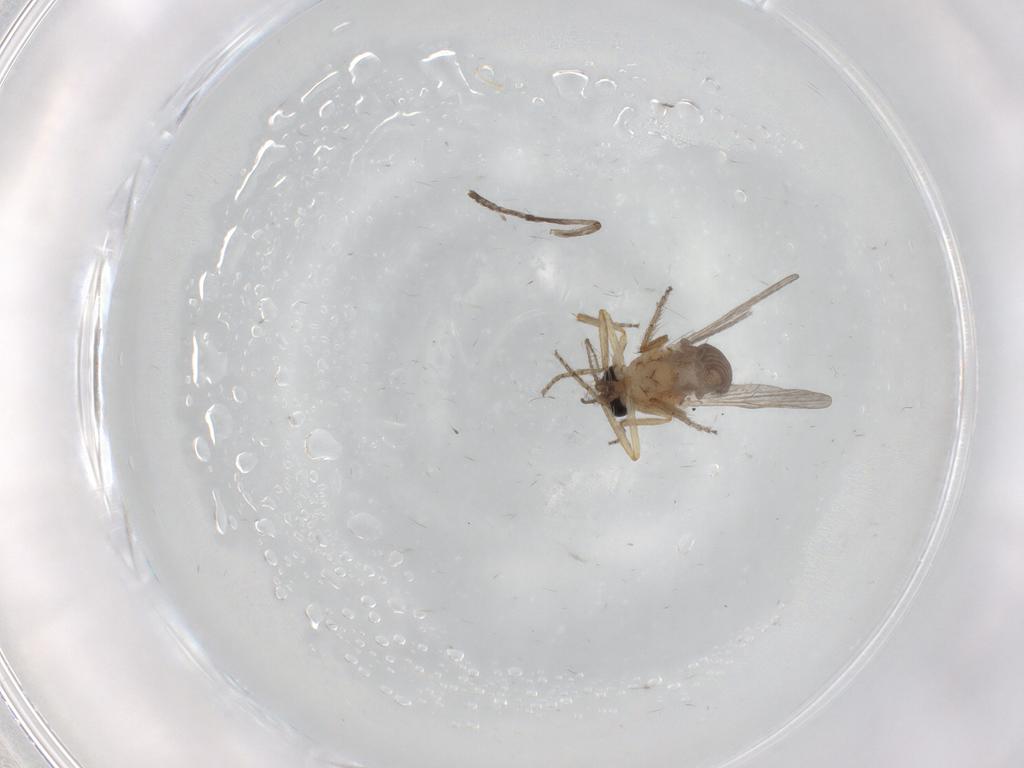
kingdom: Animalia
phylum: Arthropoda
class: Insecta
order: Diptera
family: Ceratopogonidae
